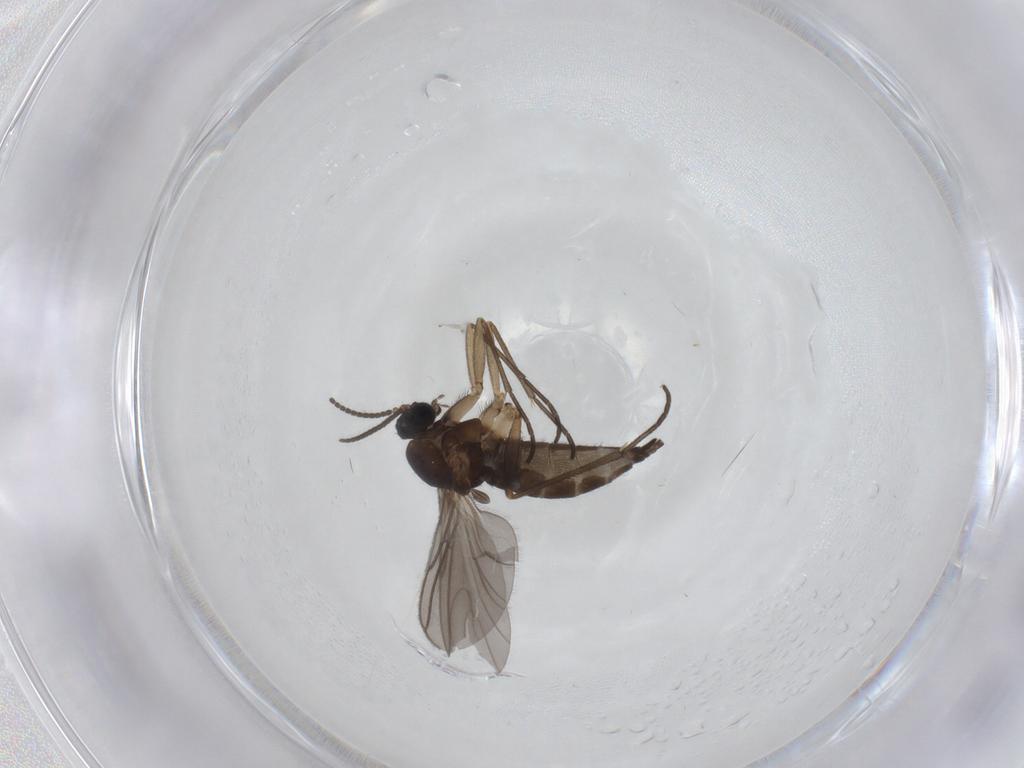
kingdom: Animalia
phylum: Arthropoda
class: Insecta
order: Diptera
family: Sciaridae
